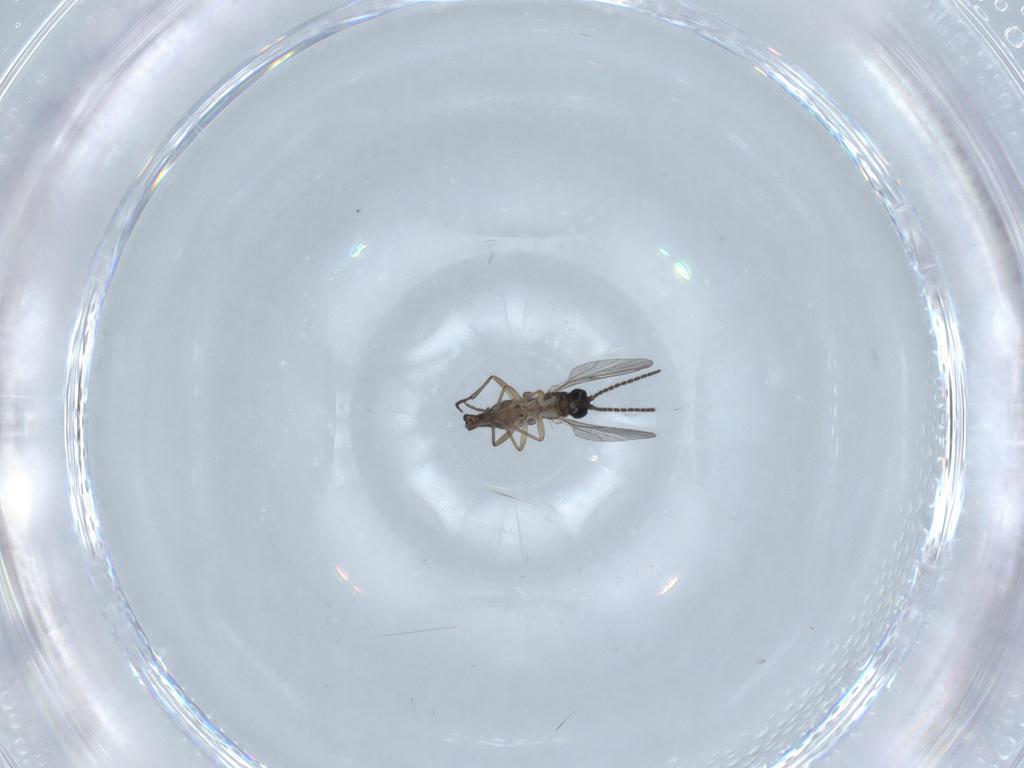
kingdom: Animalia
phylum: Arthropoda
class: Insecta
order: Diptera
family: Sciaridae
